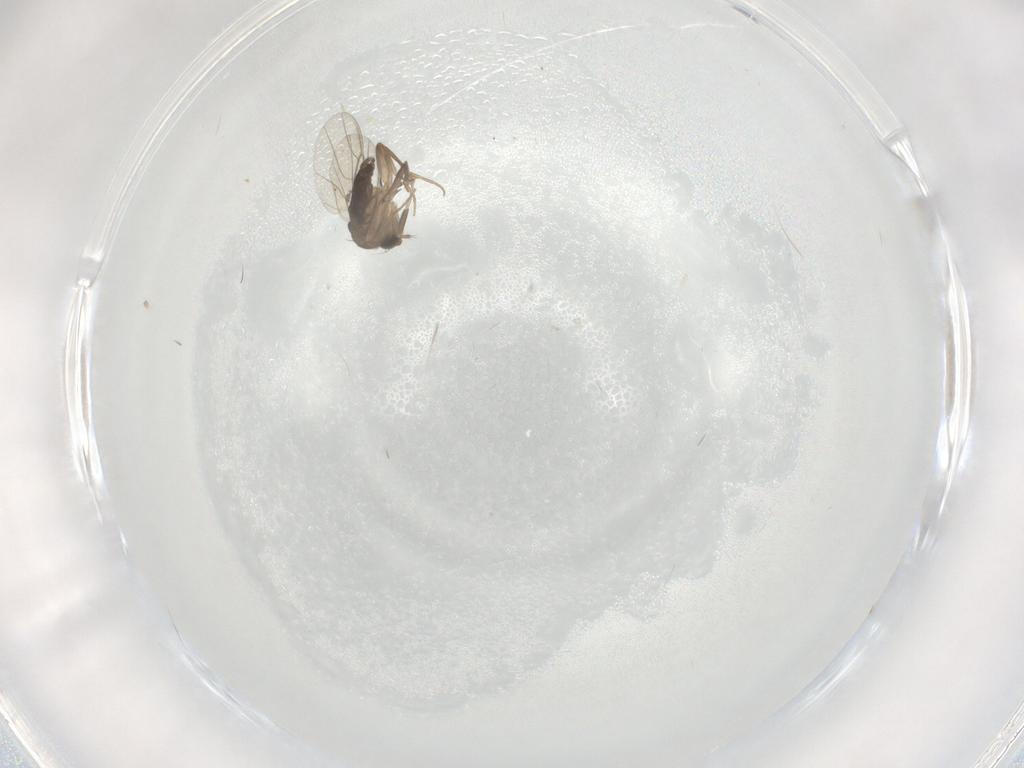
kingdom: Animalia
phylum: Arthropoda
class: Insecta
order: Diptera
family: Cecidomyiidae
